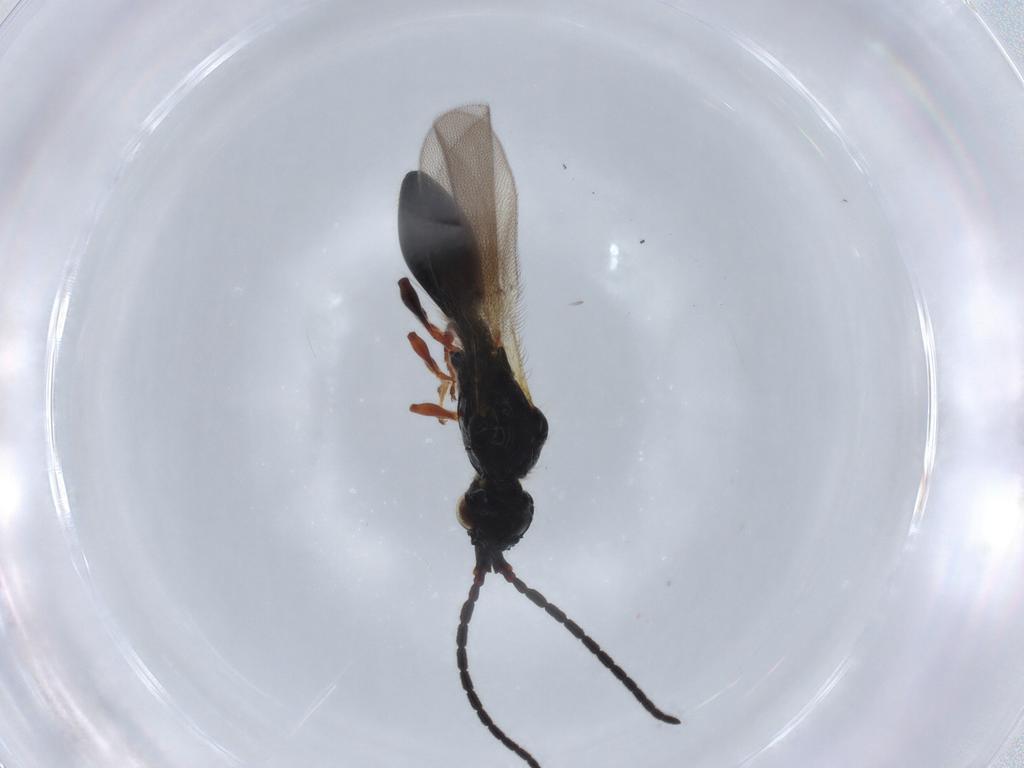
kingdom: Animalia
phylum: Arthropoda
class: Insecta
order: Hymenoptera
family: Diapriidae
